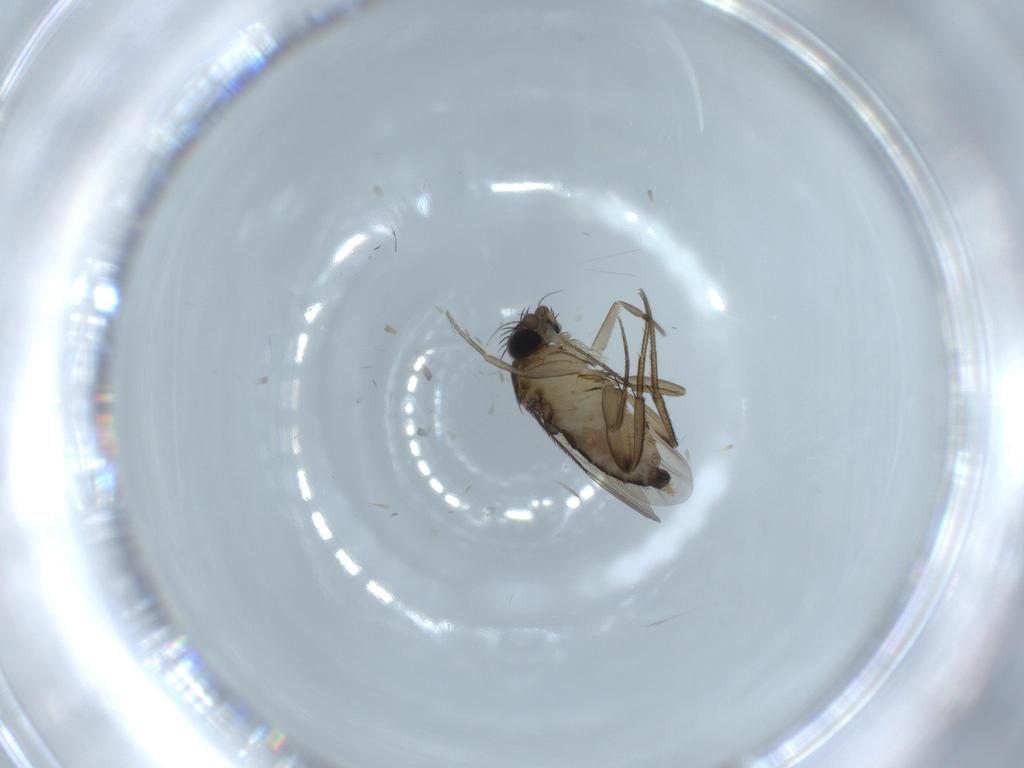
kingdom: Animalia
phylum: Arthropoda
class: Insecta
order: Diptera
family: Phoridae
